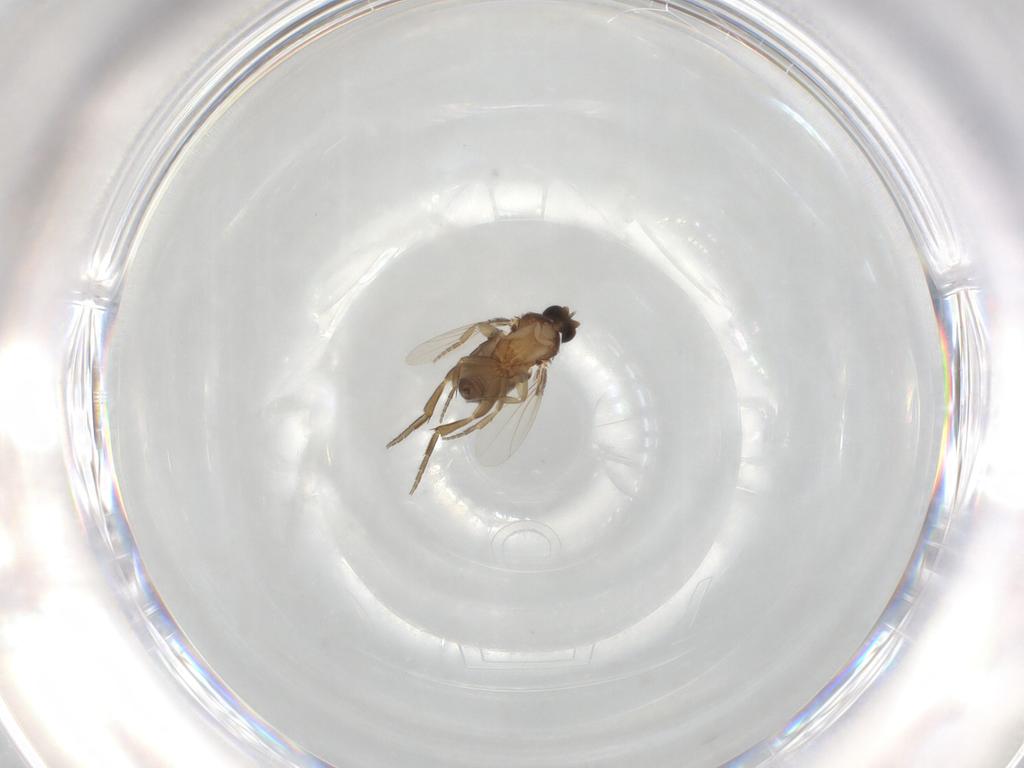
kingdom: Animalia
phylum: Arthropoda
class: Insecta
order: Diptera
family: Phoridae
